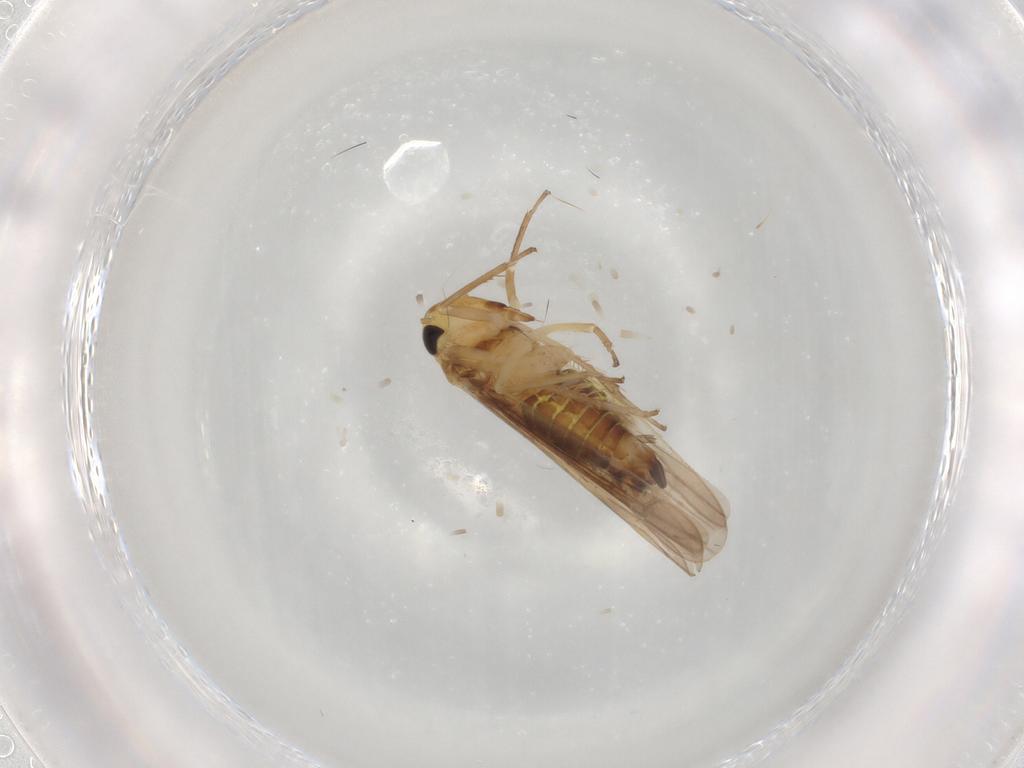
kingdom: Animalia
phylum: Arthropoda
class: Insecta
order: Hemiptera
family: Cicadellidae
